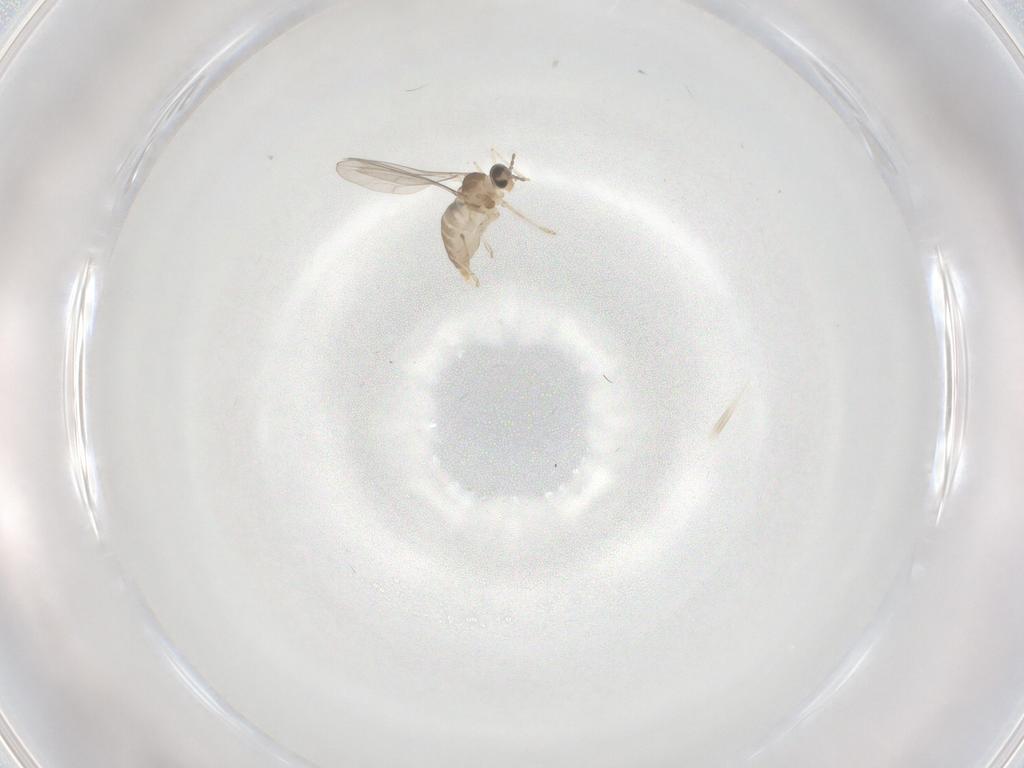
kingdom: Animalia
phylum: Arthropoda
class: Insecta
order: Diptera
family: Cecidomyiidae
